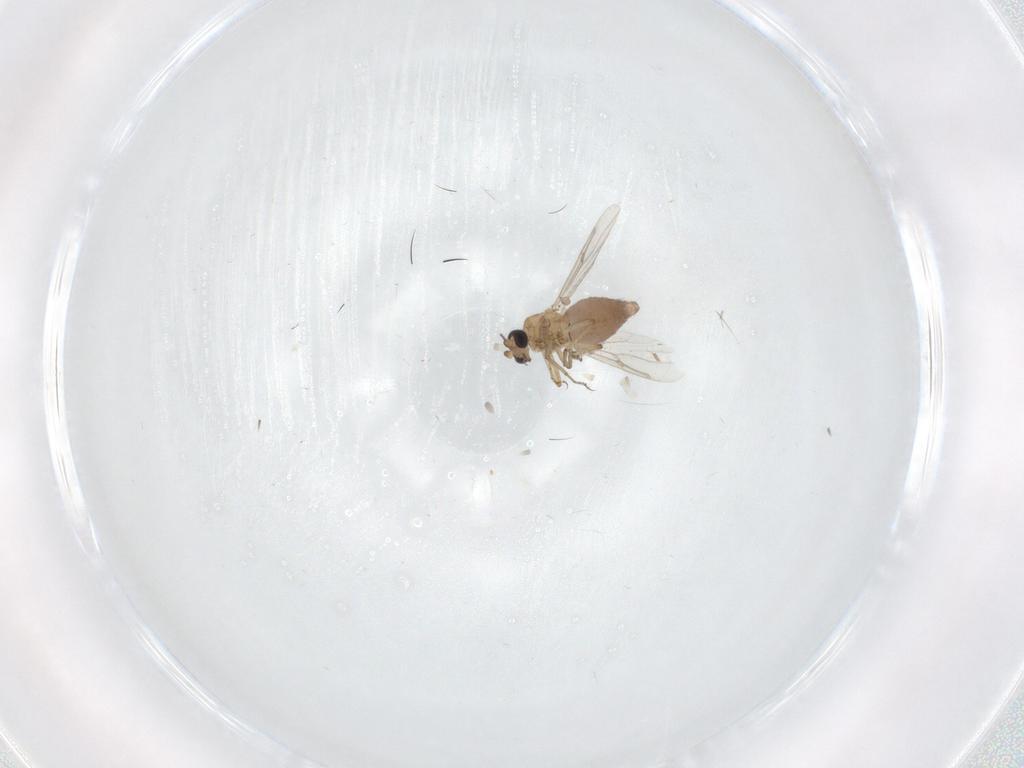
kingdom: Animalia
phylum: Arthropoda
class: Insecta
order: Diptera
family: Ceratopogonidae
